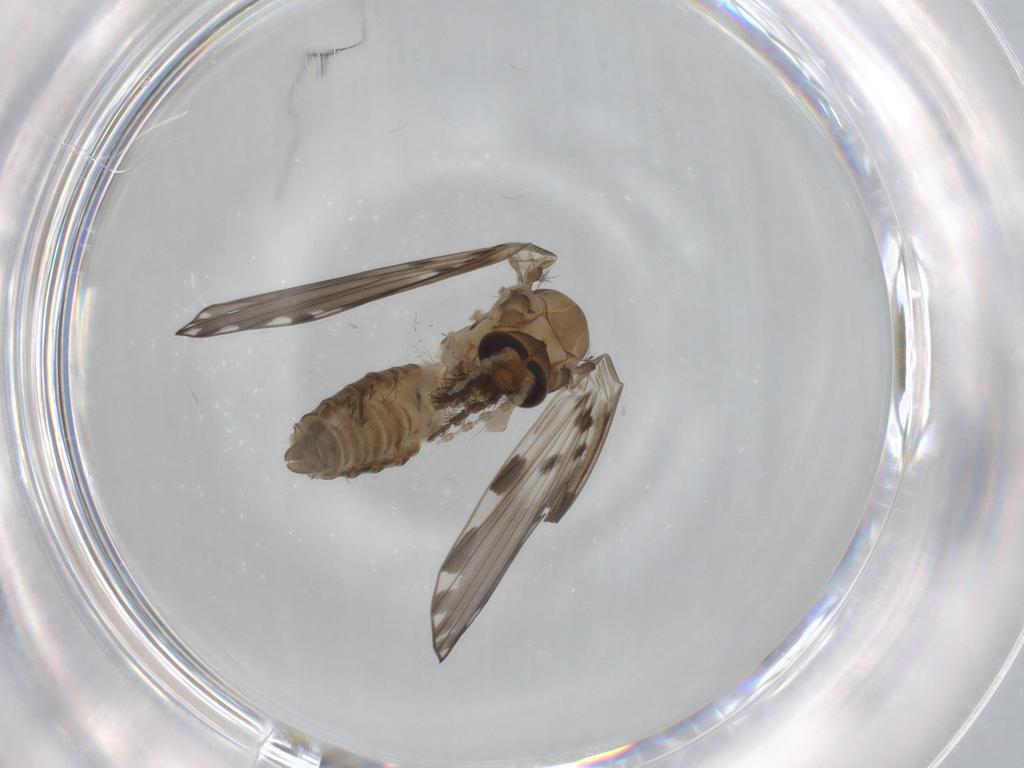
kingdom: Animalia
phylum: Arthropoda
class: Insecta
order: Diptera
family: Psychodidae
